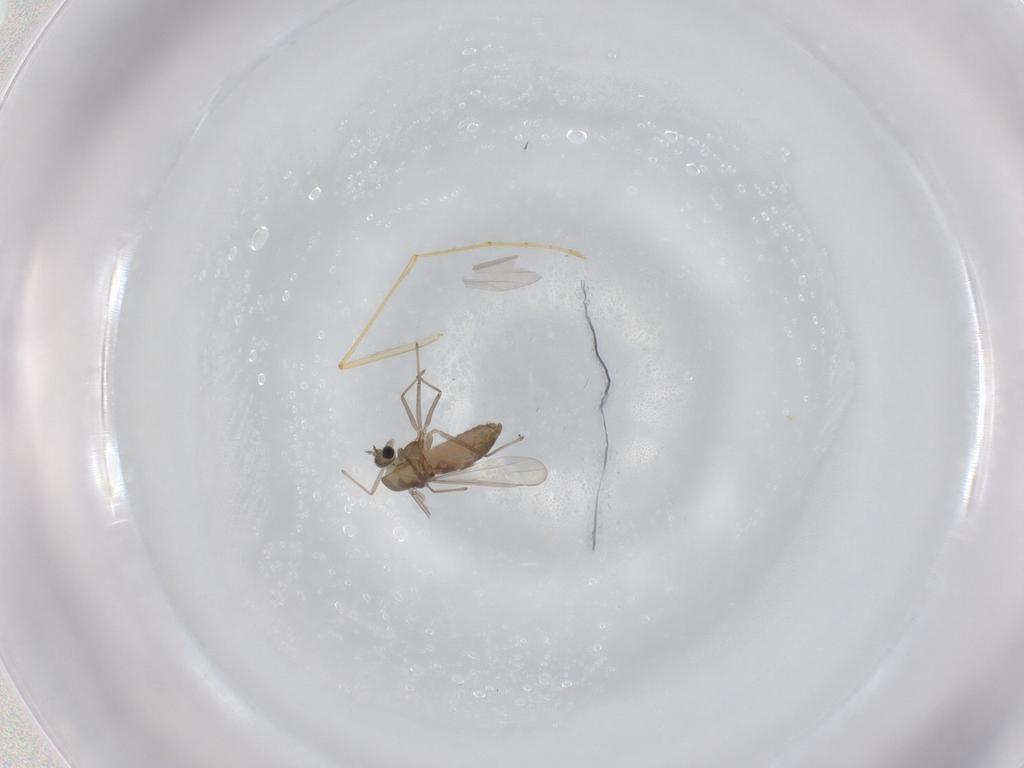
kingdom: Animalia
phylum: Arthropoda
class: Insecta
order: Diptera
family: Chironomidae
